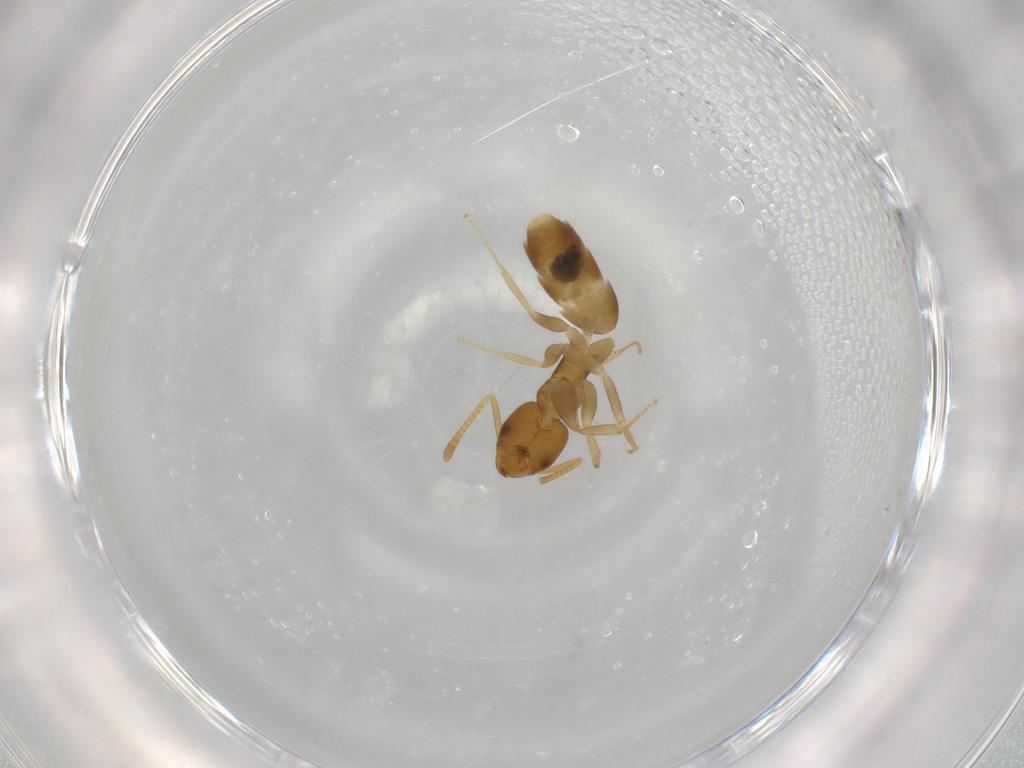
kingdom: Animalia
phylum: Arthropoda
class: Insecta
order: Hymenoptera
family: Formicidae
